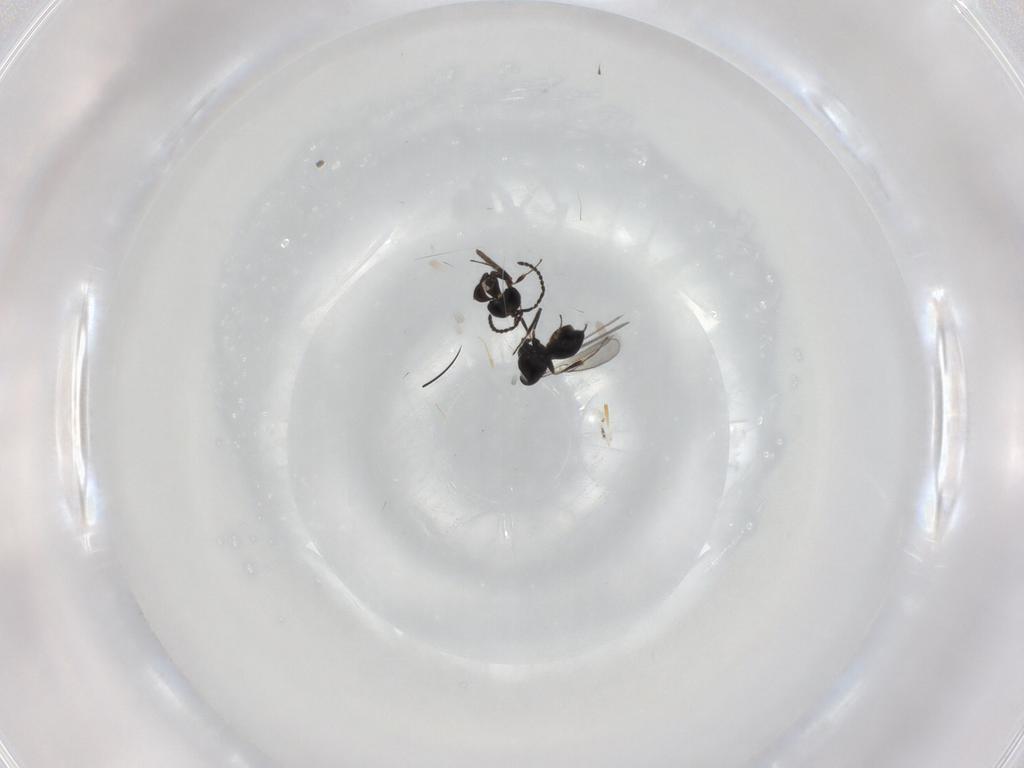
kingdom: Animalia
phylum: Arthropoda
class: Insecta
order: Hymenoptera
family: Scelionidae
